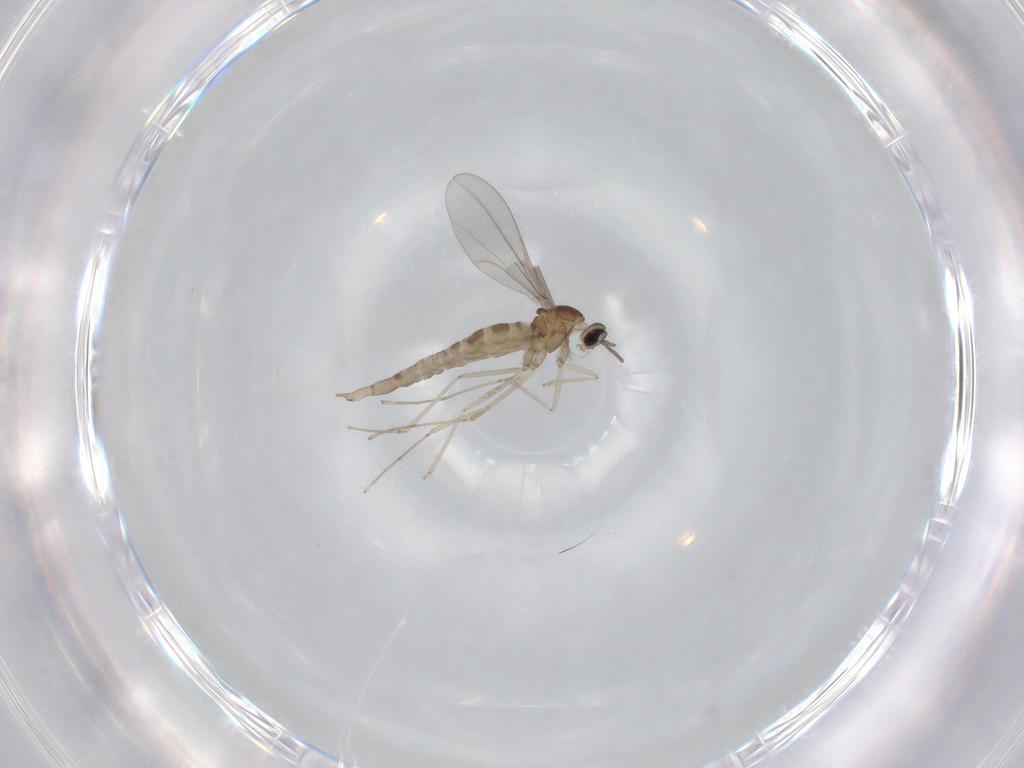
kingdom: Animalia
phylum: Arthropoda
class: Insecta
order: Diptera
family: Cecidomyiidae
